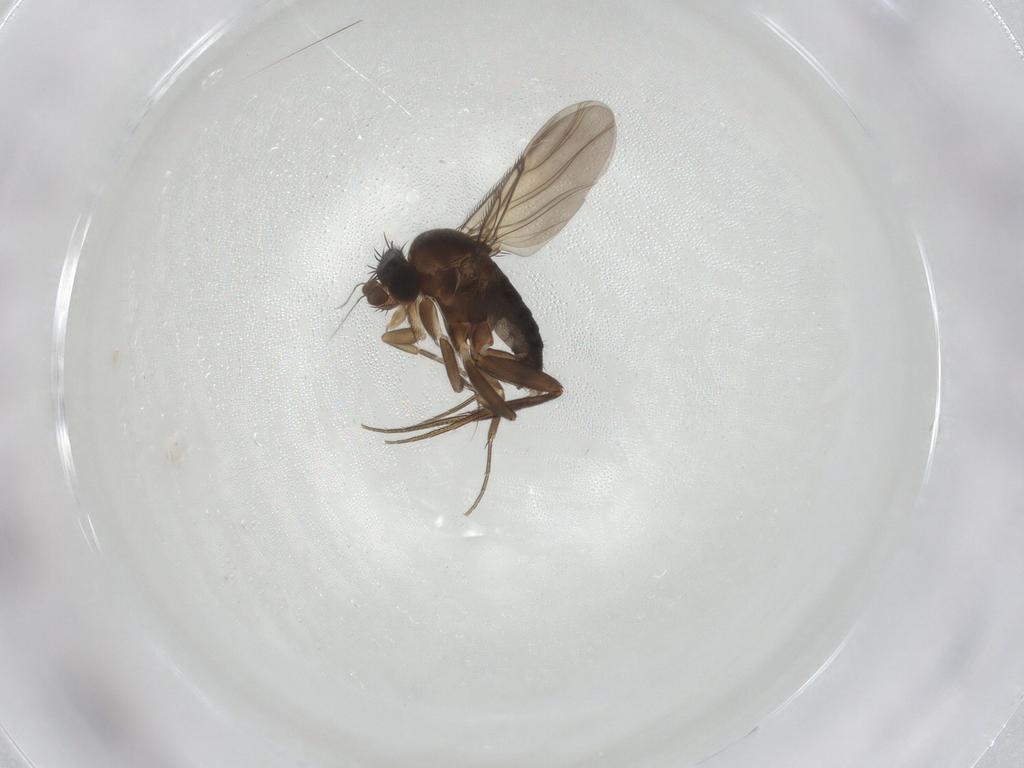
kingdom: Animalia
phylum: Arthropoda
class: Insecta
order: Diptera
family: Phoridae
